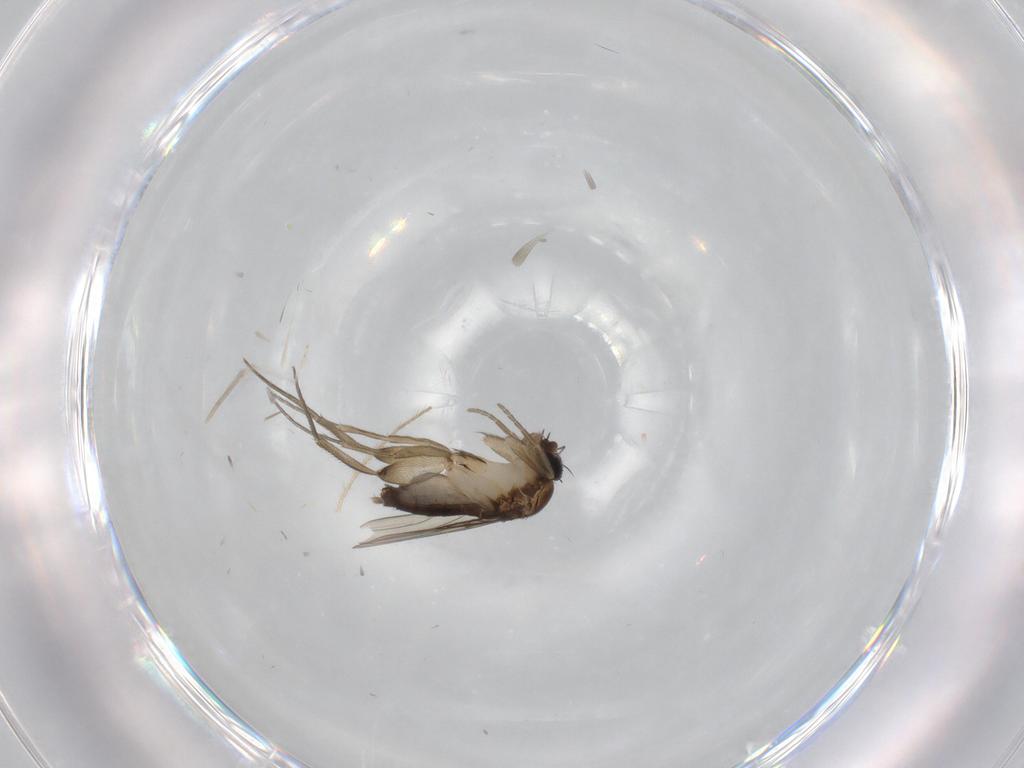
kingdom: Animalia
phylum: Arthropoda
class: Insecta
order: Diptera
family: Phoridae
